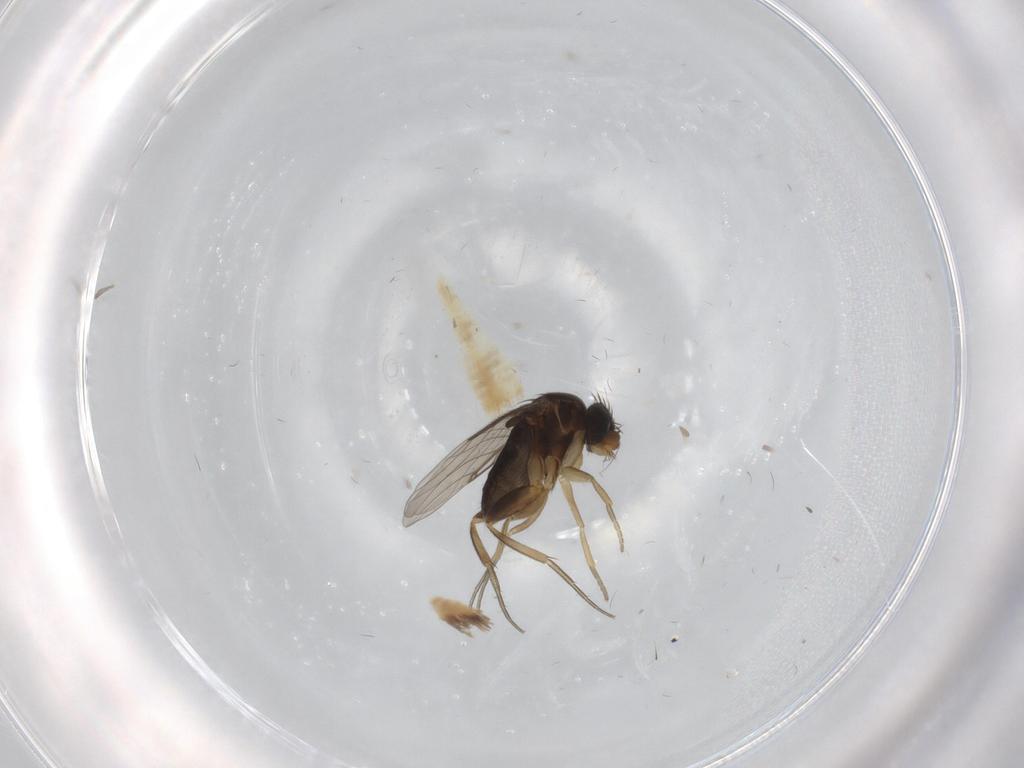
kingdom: Animalia
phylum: Arthropoda
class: Insecta
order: Diptera
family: Phoridae
